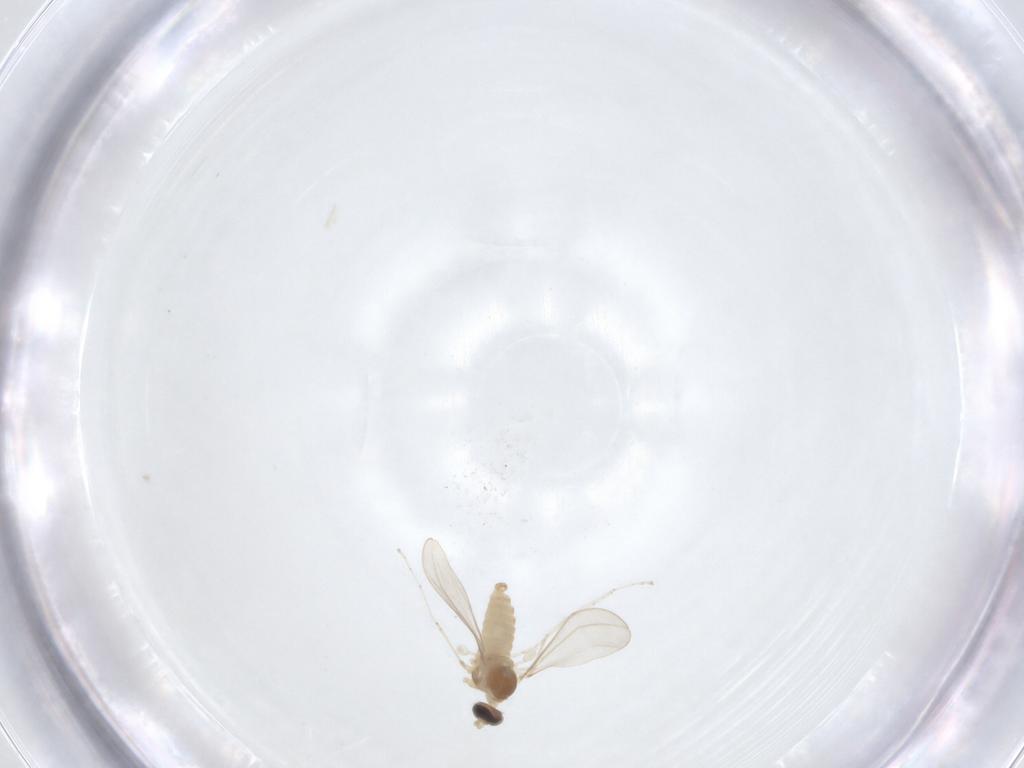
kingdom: Animalia
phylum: Arthropoda
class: Insecta
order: Diptera
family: Cecidomyiidae
